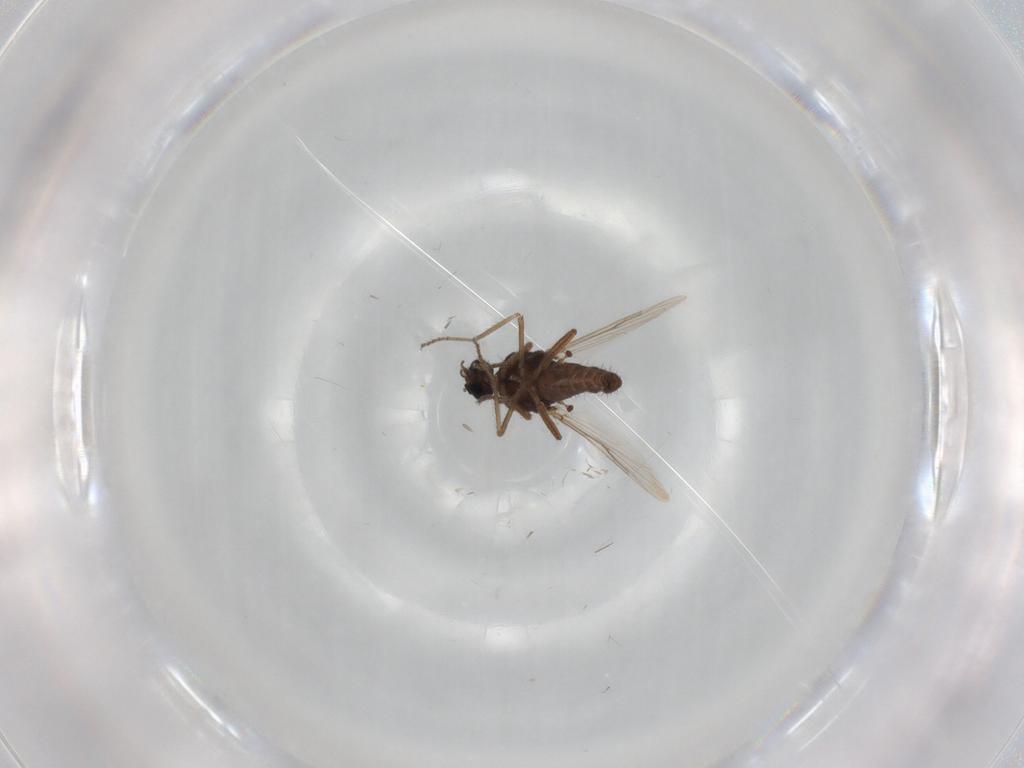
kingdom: Animalia
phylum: Arthropoda
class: Insecta
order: Diptera
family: Ceratopogonidae
